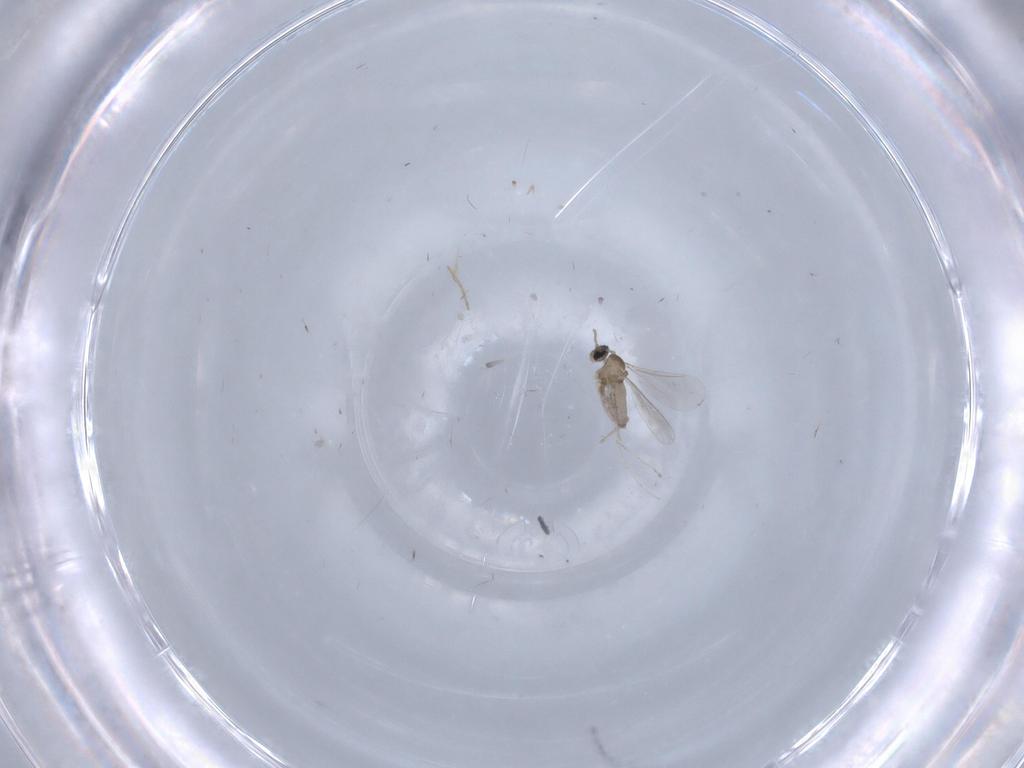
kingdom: Animalia
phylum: Arthropoda
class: Insecta
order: Diptera
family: Cecidomyiidae
